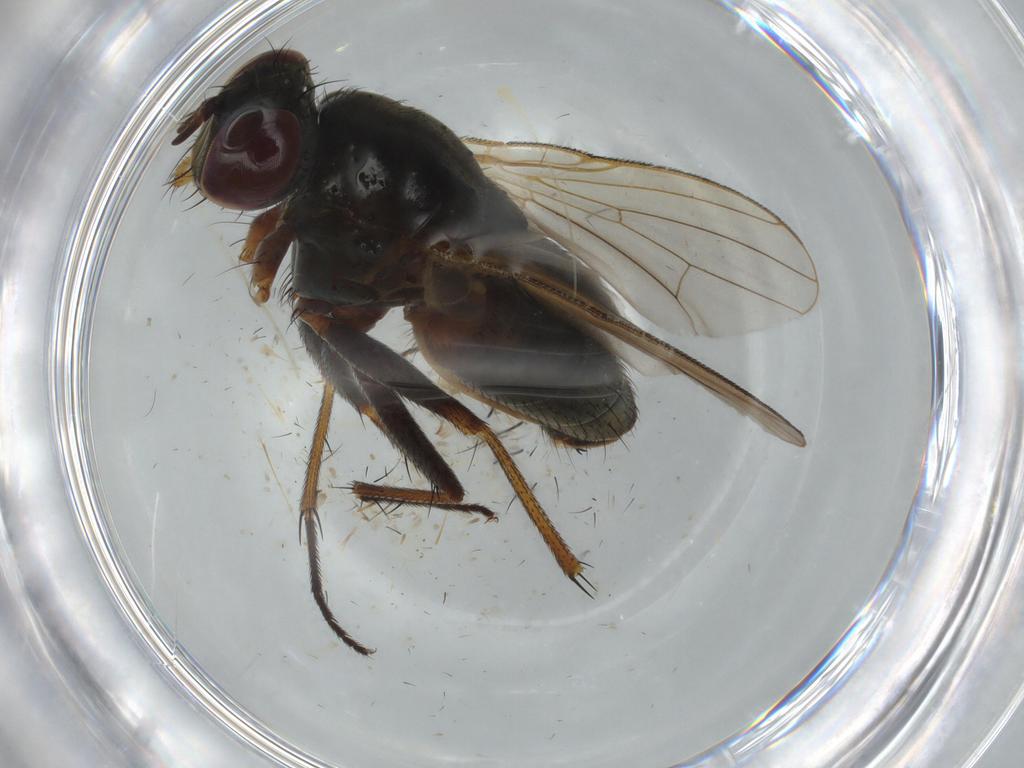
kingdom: Animalia
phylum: Arthropoda
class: Insecta
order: Diptera
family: Muscidae
